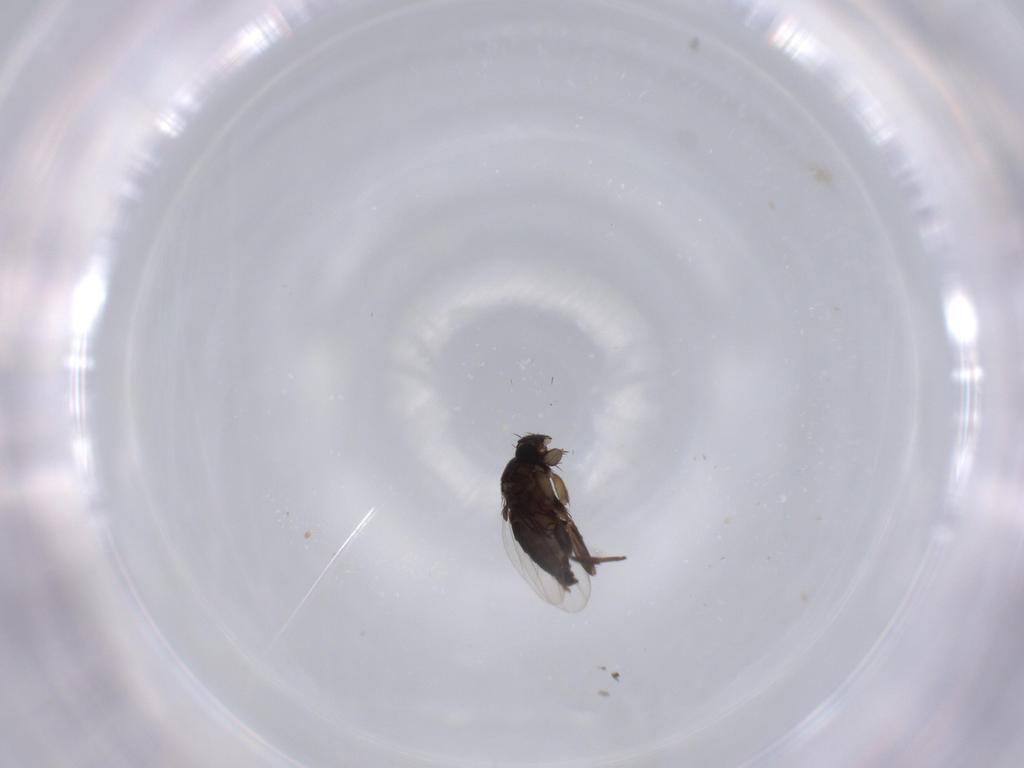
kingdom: Animalia
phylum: Arthropoda
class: Insecta
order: Diptera
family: Phoridae
